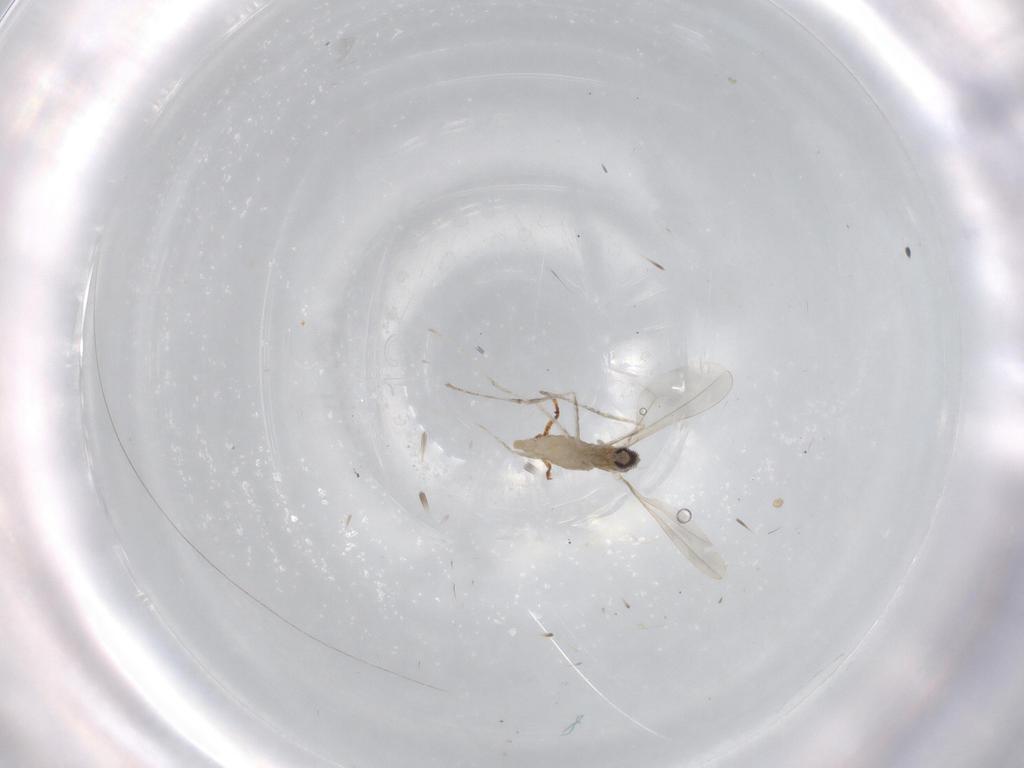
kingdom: Animalia
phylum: Arthropoda
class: Insecta
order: Diptera
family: Cecidomyiidae
